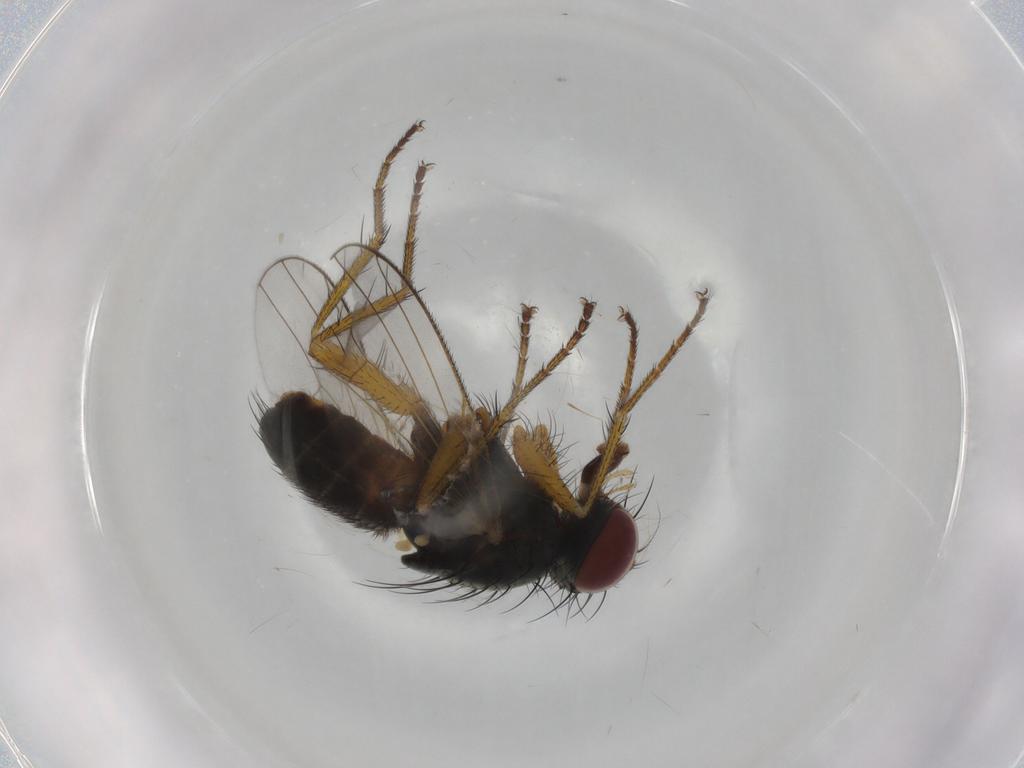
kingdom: Animalia
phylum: Arthropoda
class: Insecta
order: Diptera
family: Muscidae
